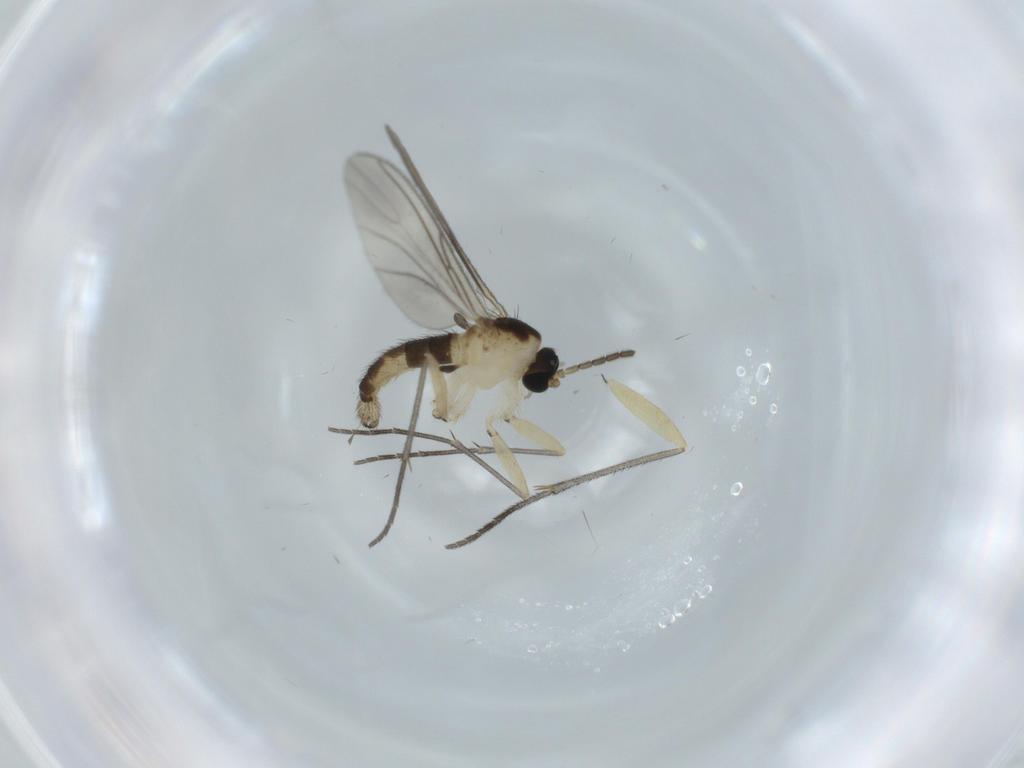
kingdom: Animalia
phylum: Arthropoda
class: Insecta
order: Diptera
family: Sciaridae
